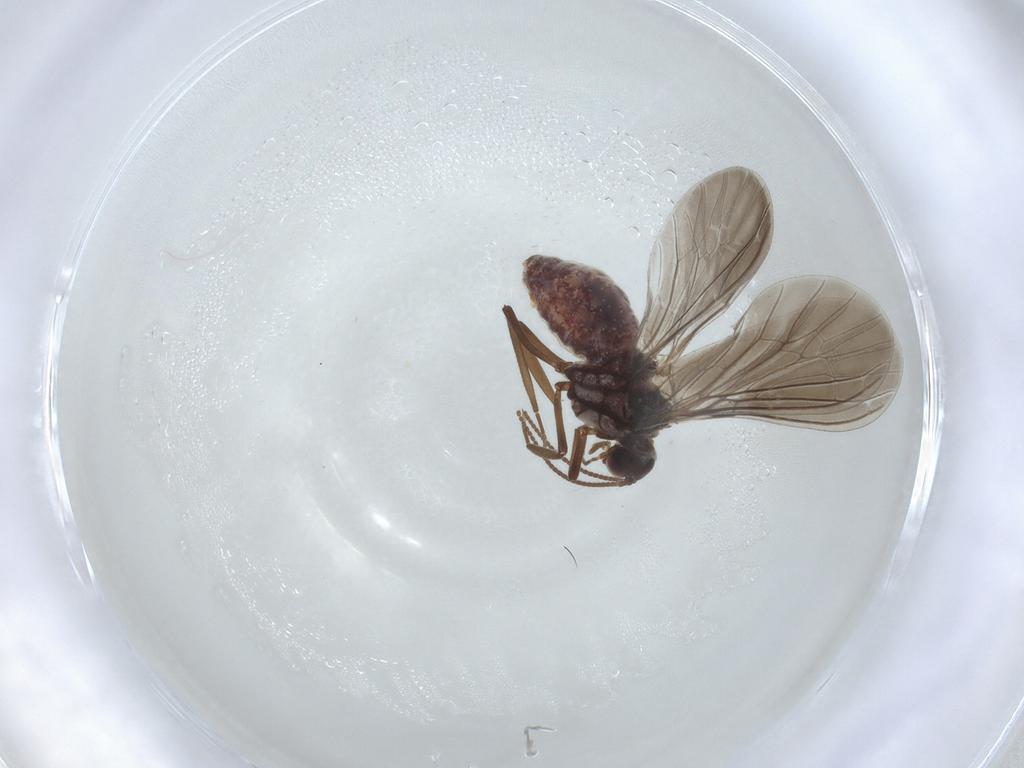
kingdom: Animalia
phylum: Arthropoda
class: Insecta
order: Neuroptera
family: Coniopterygidae
